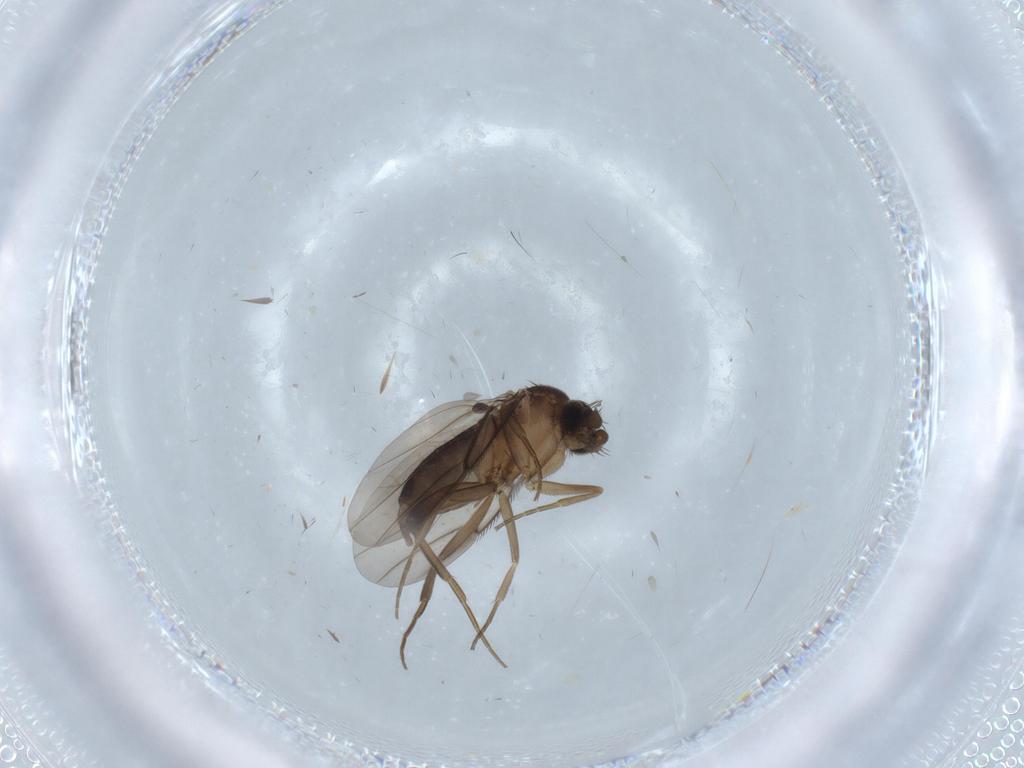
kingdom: Animalia
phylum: Arthropoda
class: Insecta
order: Diptera
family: Phoridae
